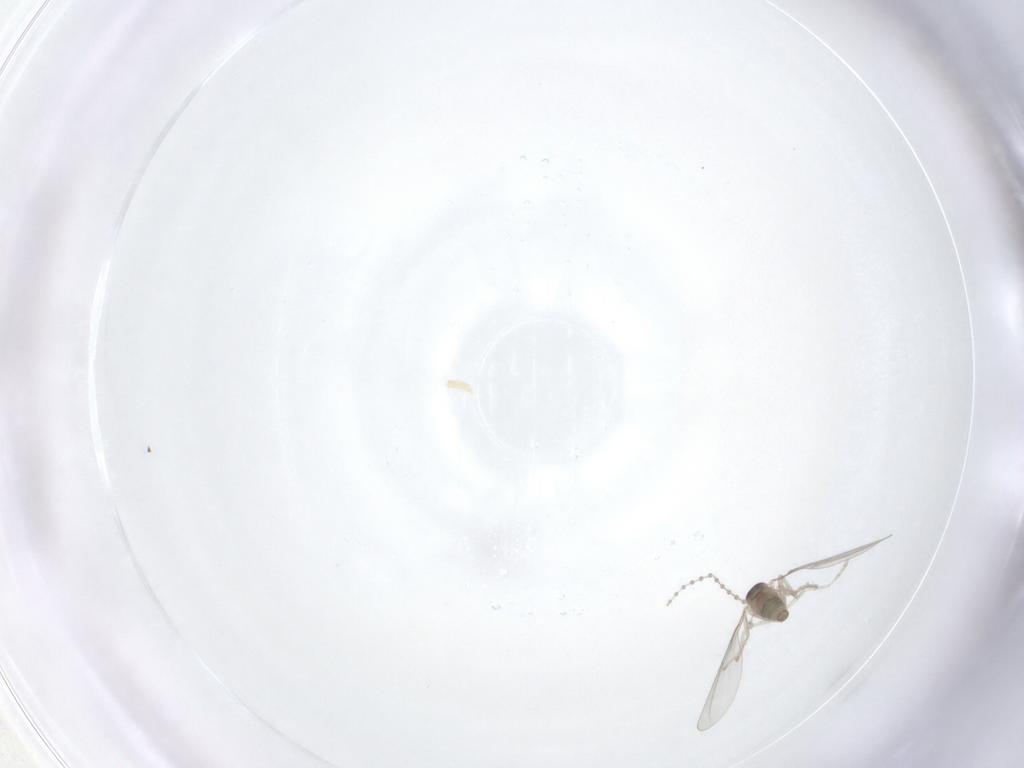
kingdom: Animalia
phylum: Arthropoda
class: Insecta
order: Diptera
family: Cecidomyiidae
